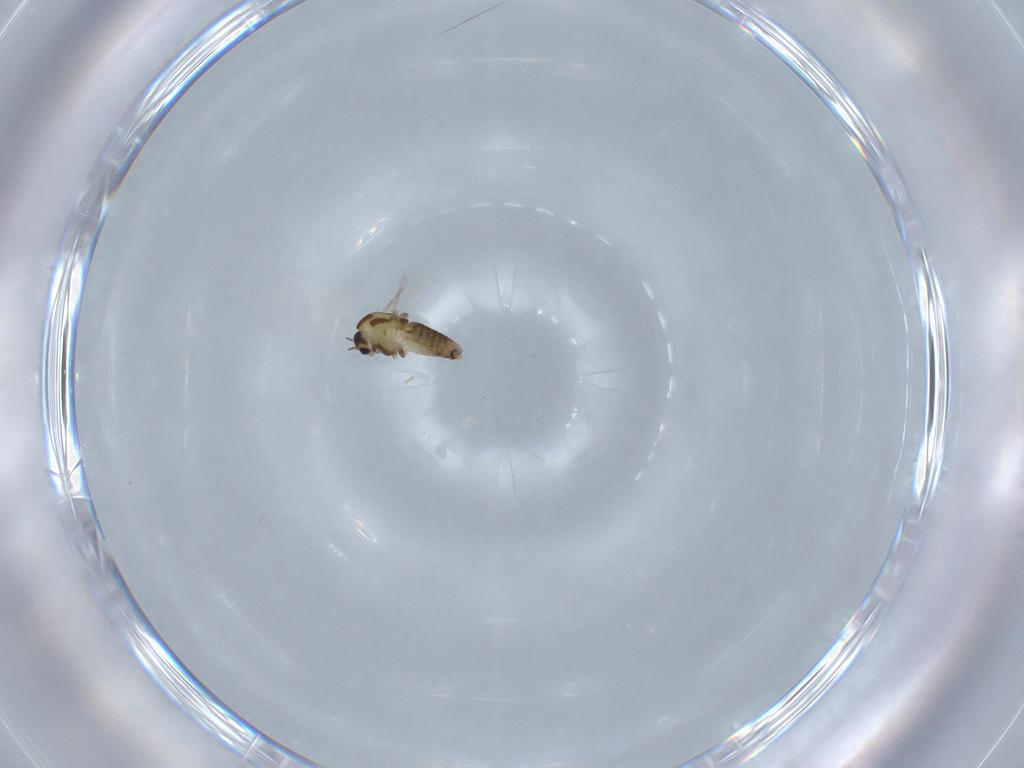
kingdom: Animalia
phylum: Arthropoda
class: Insecta
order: Diptera
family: Chironomidae
